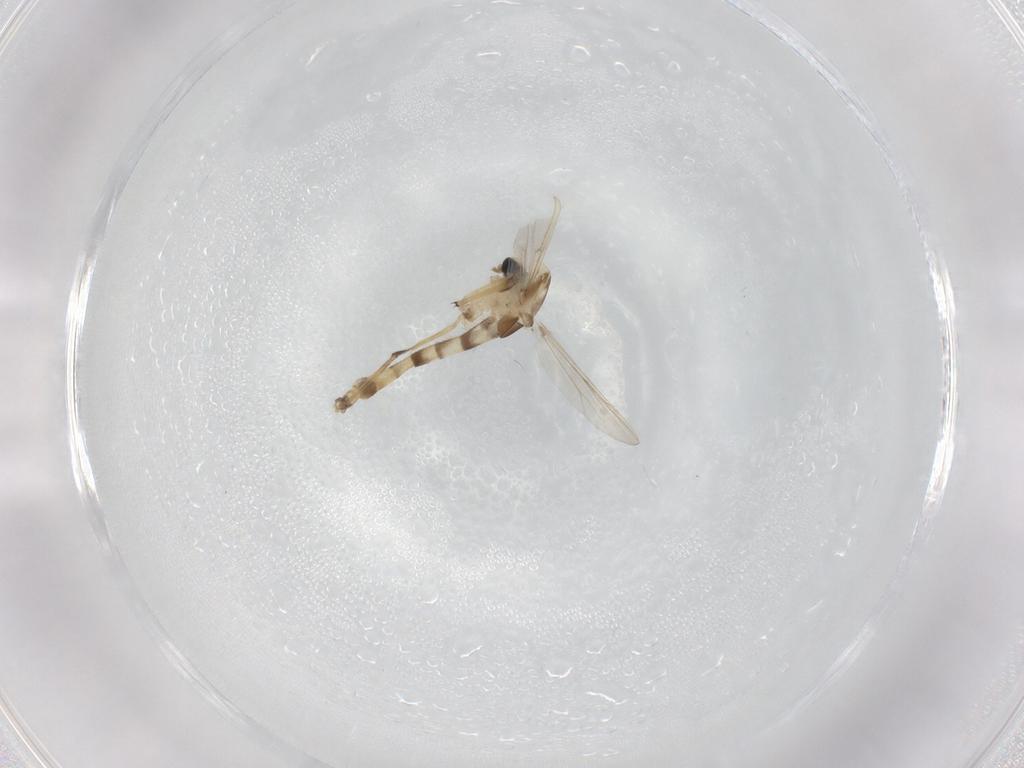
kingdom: Animalia
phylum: Arthropoda
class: Insecta
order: Diptera
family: Chironomidae
